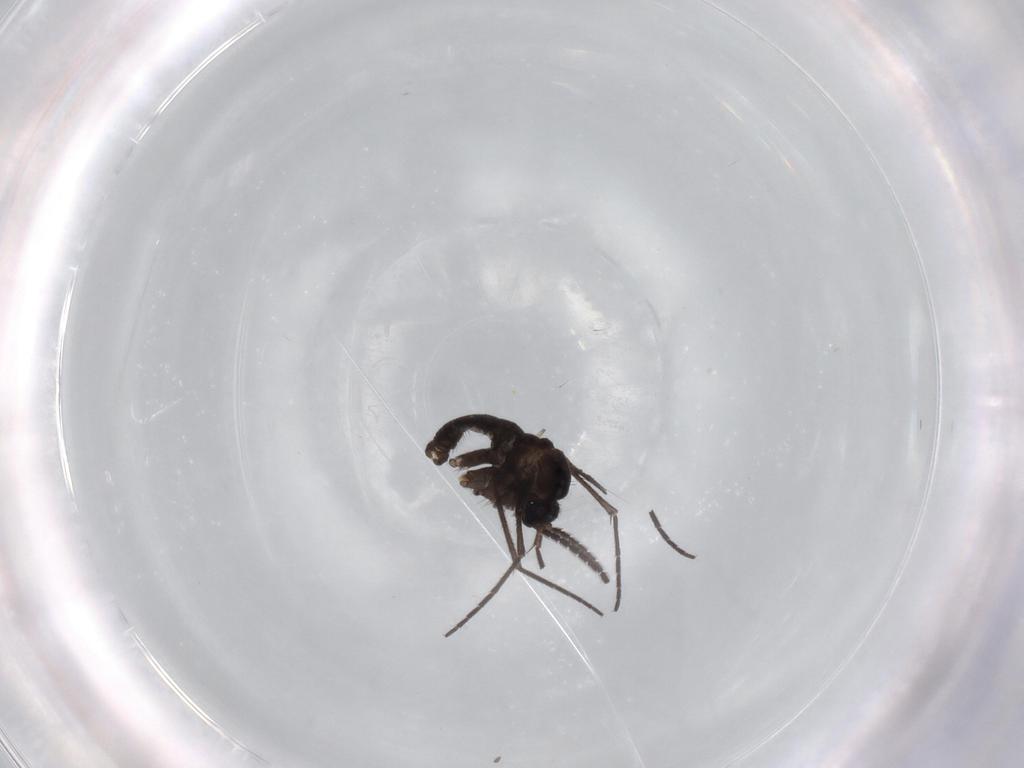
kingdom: Animalia
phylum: Arthropoda
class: Insecta
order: Diptera
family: Sciaridae
